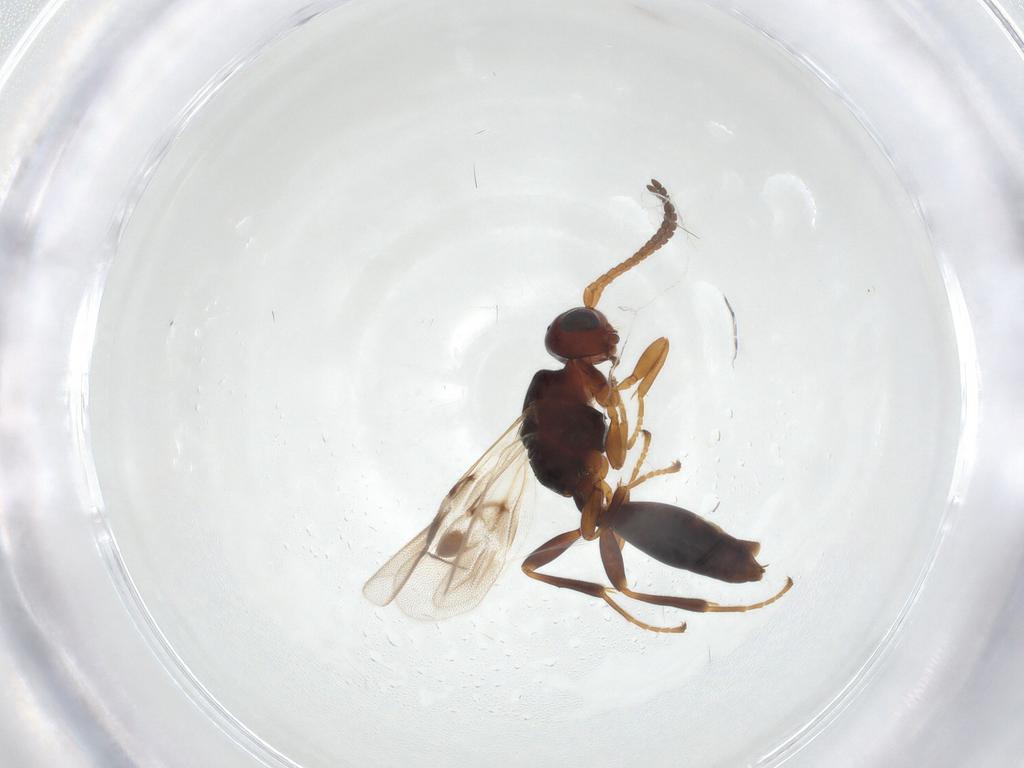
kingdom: Animalia
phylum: Arthropoda
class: Insecta
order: Hymenoptera
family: Braconidae
